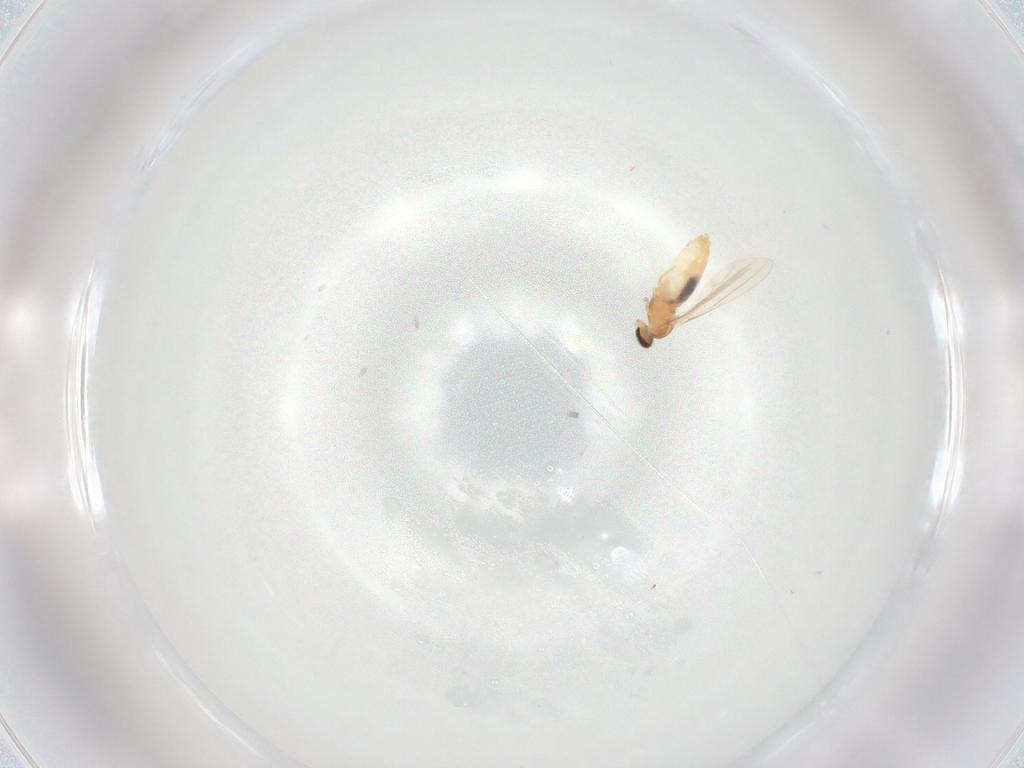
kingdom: Animalia
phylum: Arthropoda
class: Insecta
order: Diptera
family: Cecidomyiidae
